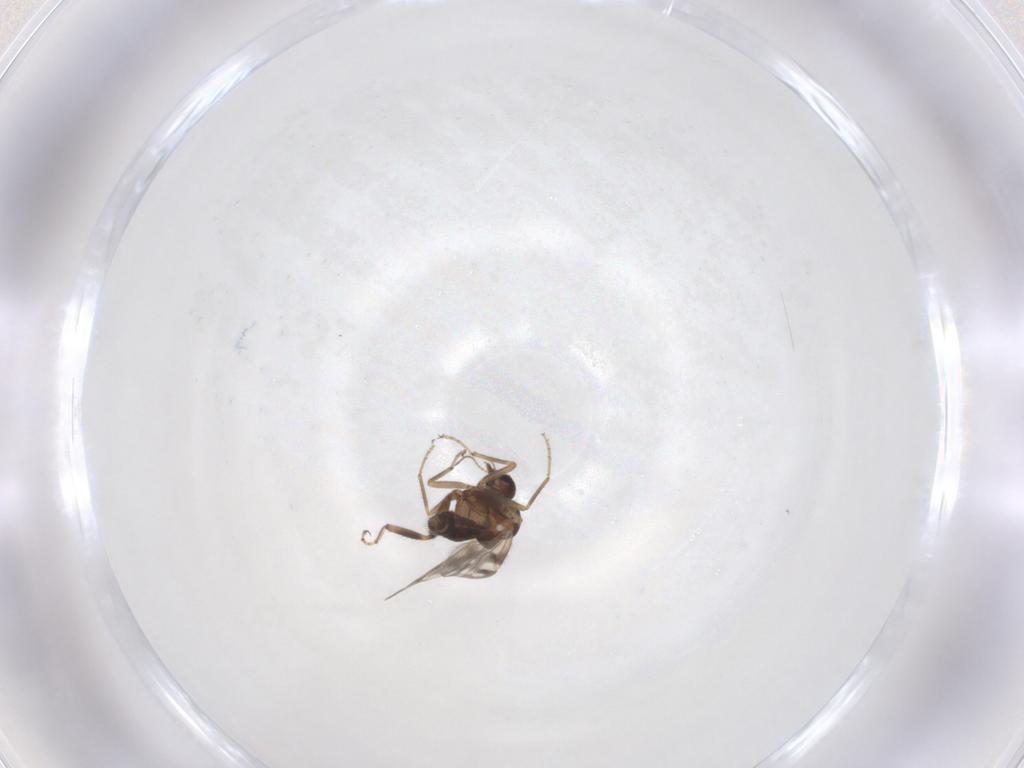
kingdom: Animalia
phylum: Arthropoda
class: Insecta
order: Diptera
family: Ceratopogonidae
